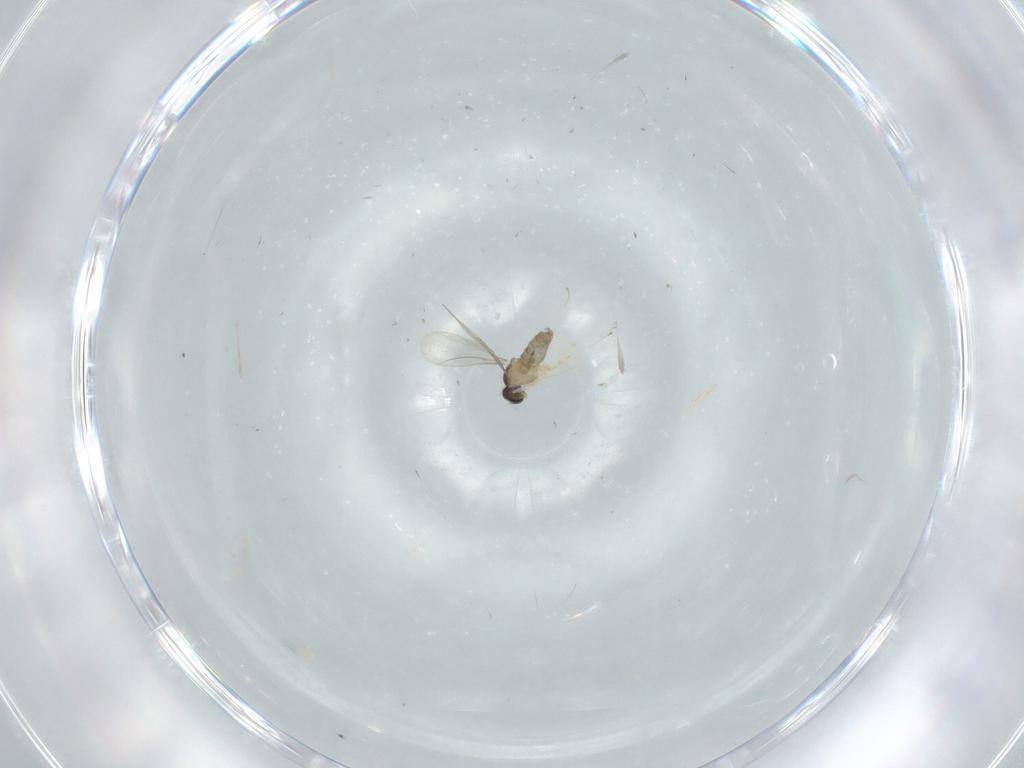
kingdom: Animalia
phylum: Arthropoda
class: Insecta
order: Diptera
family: Cecidomyiidae
